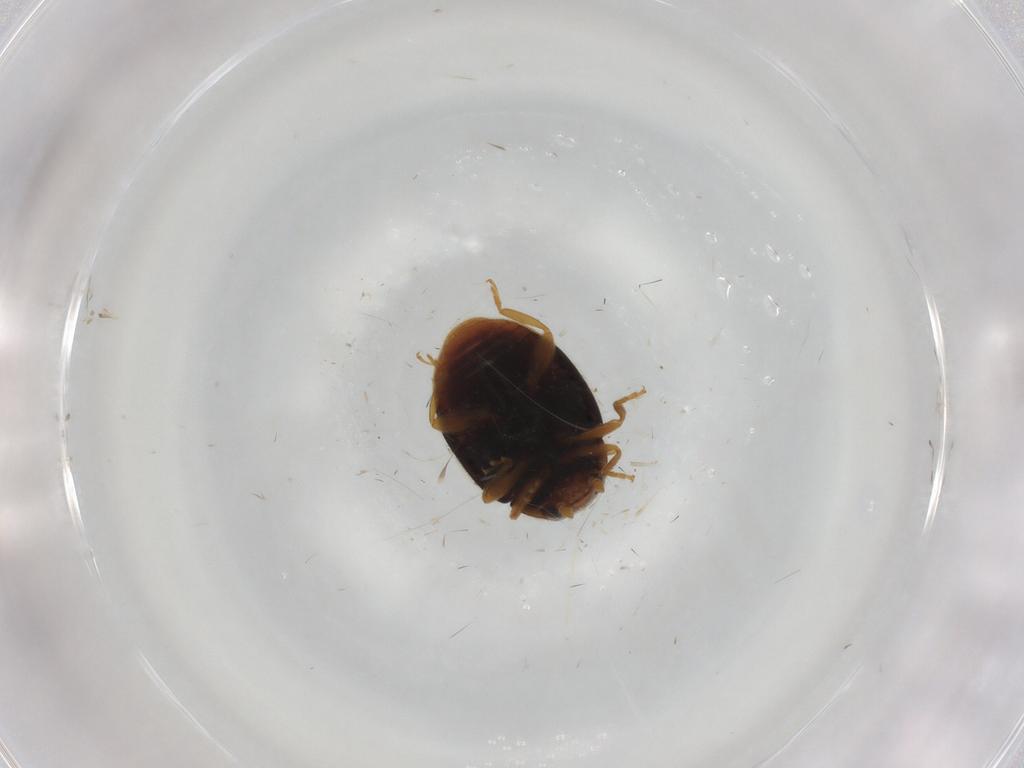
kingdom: Animalia
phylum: Arthropoda
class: Insecta
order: Coleoptera
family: Coccinellidae
